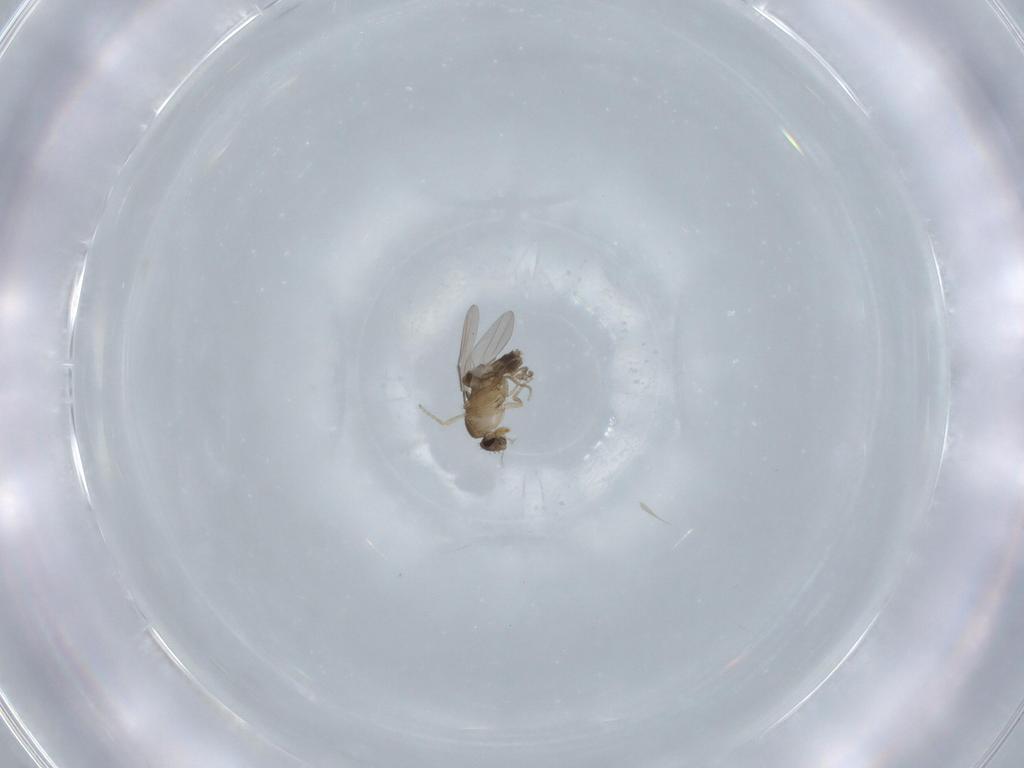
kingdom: Animalia
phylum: Arthropoda
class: Insecta
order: Diptera
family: Phoridae
